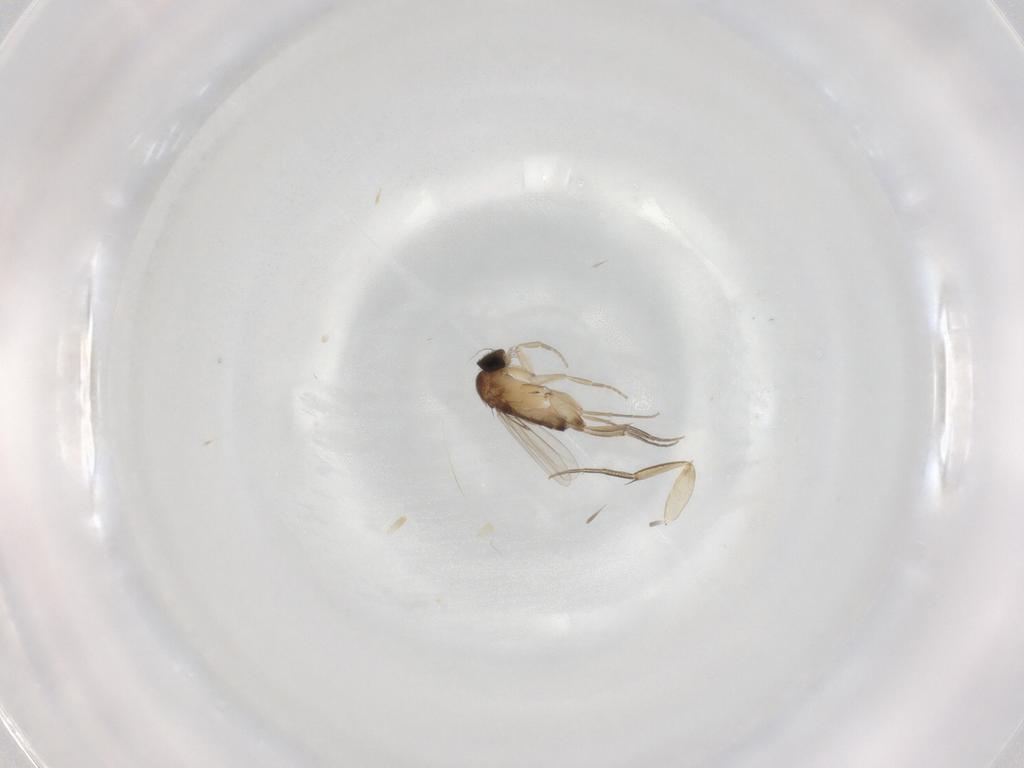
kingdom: Animalia
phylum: Arthropoda
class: Insecta
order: Diptera
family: Phoridae
